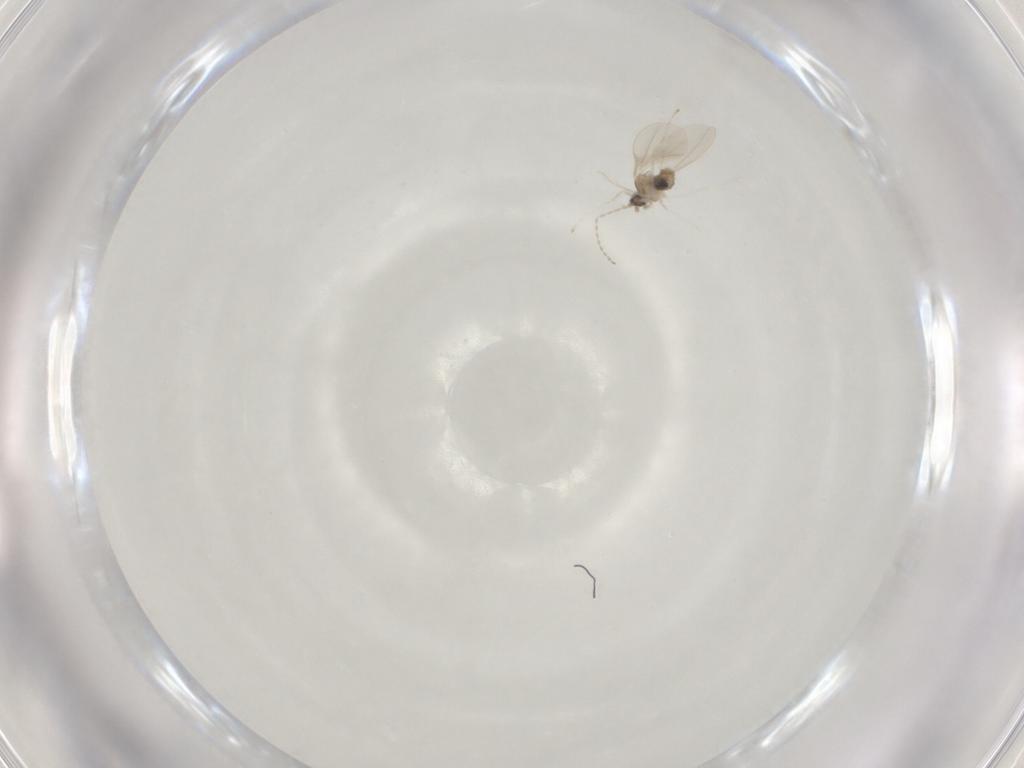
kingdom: Animalia
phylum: Arthropoda
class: Insecta
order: Diptera
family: Cecidomyiidae
